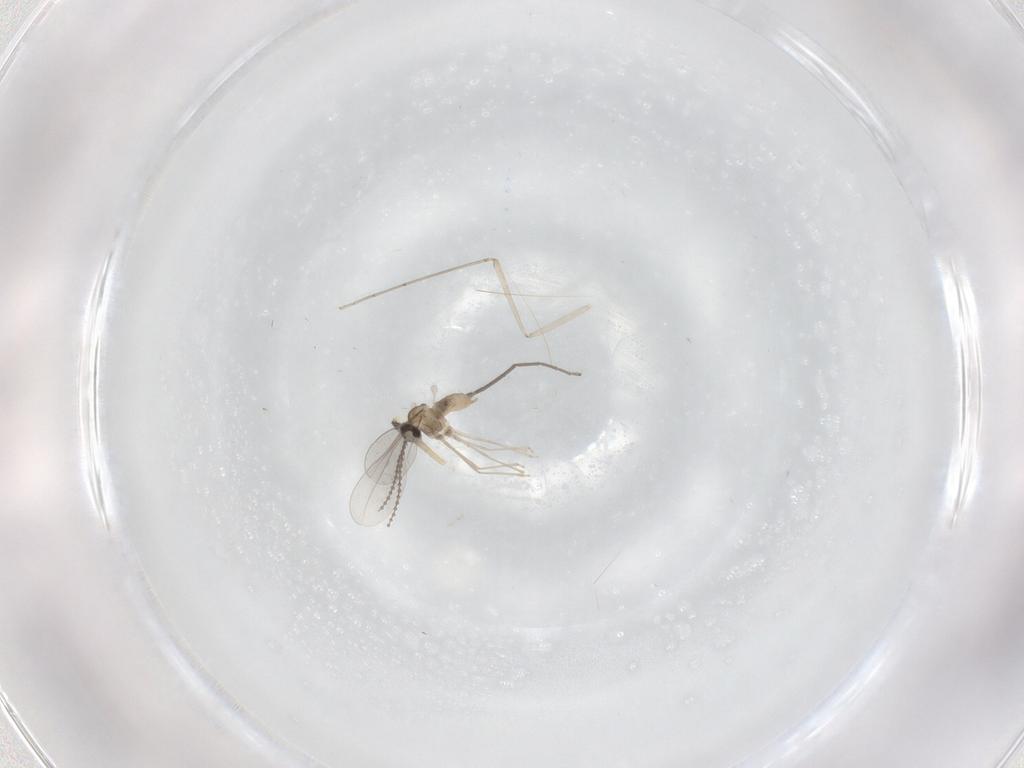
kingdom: Animalia
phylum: Arthropoda
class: Insecta
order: Diptera
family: Chironomidae
